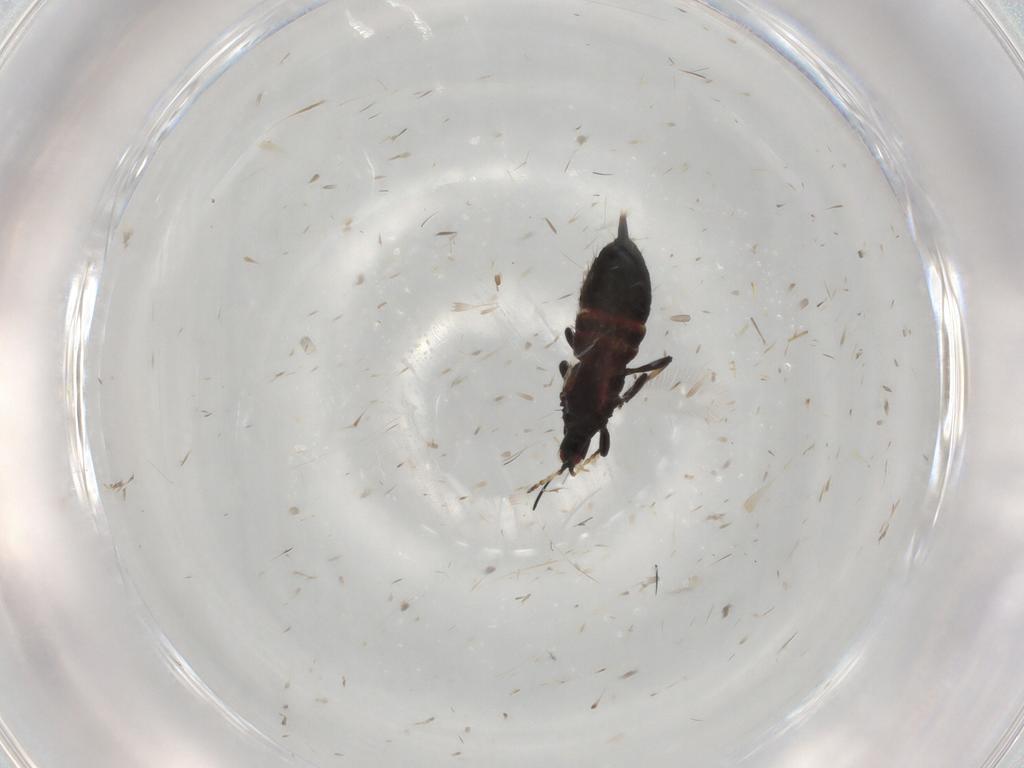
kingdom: Animalia
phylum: Arthropoda
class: Insecta
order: Thysanoptera
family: Phlaeothripidae
